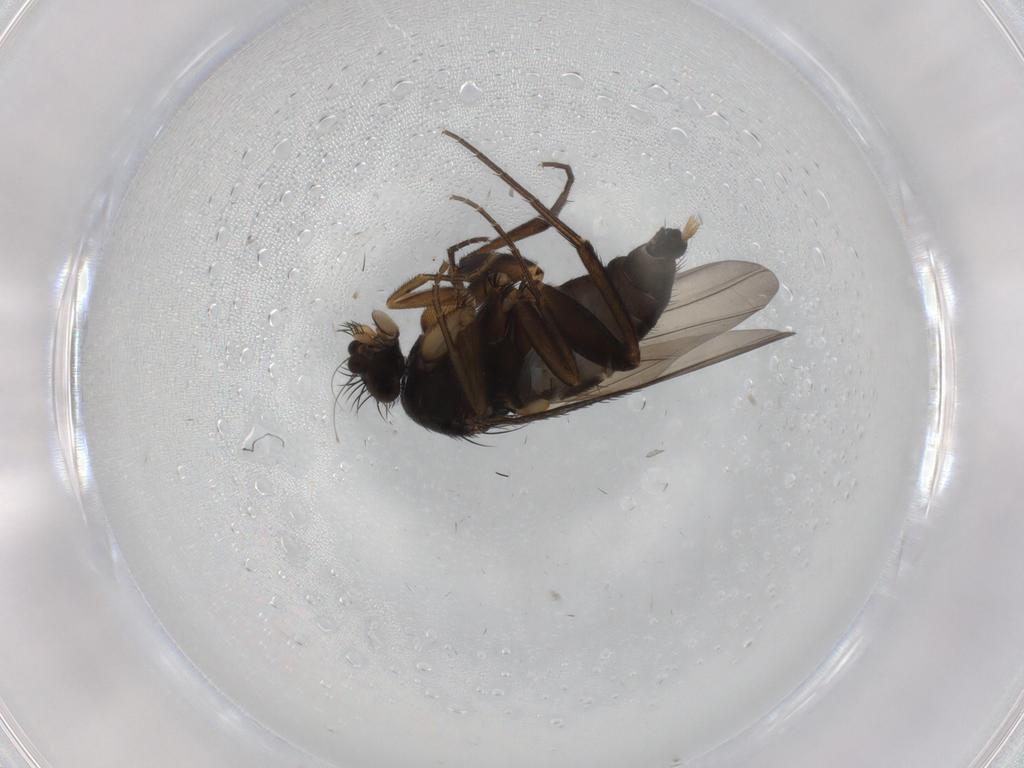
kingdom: Animalia
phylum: Arthropoda
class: Insecta
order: Diptera
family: Phoridae
